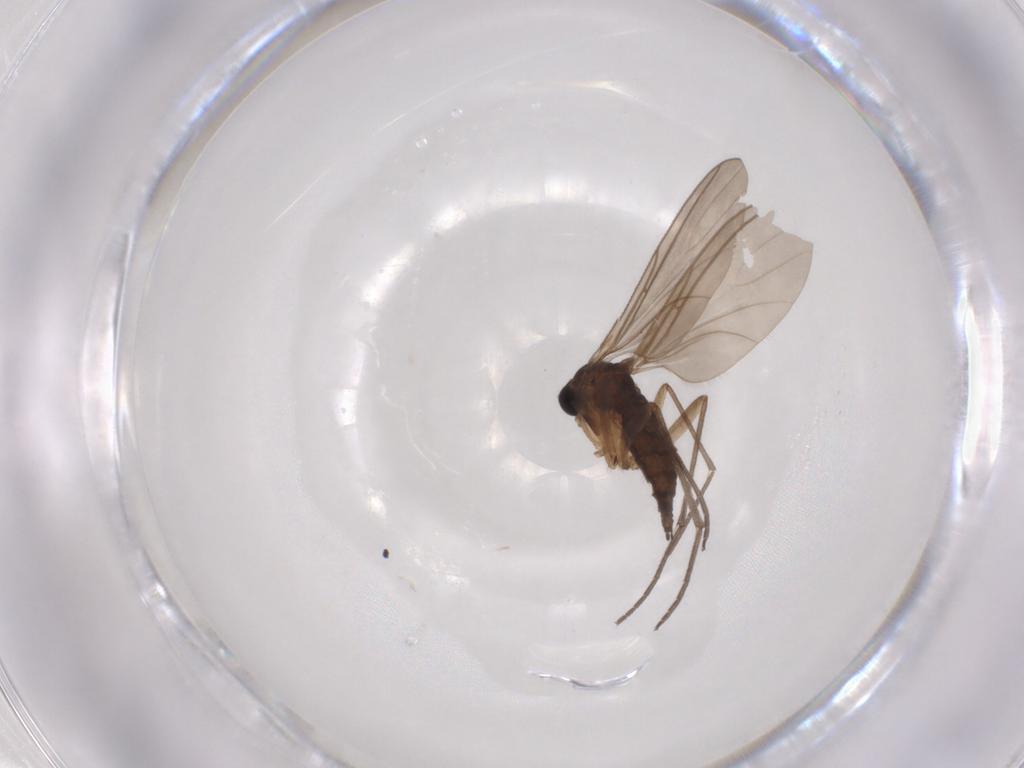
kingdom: Animalia
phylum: Arthropoda
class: Insecta
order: Diptera
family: Chironomidae
